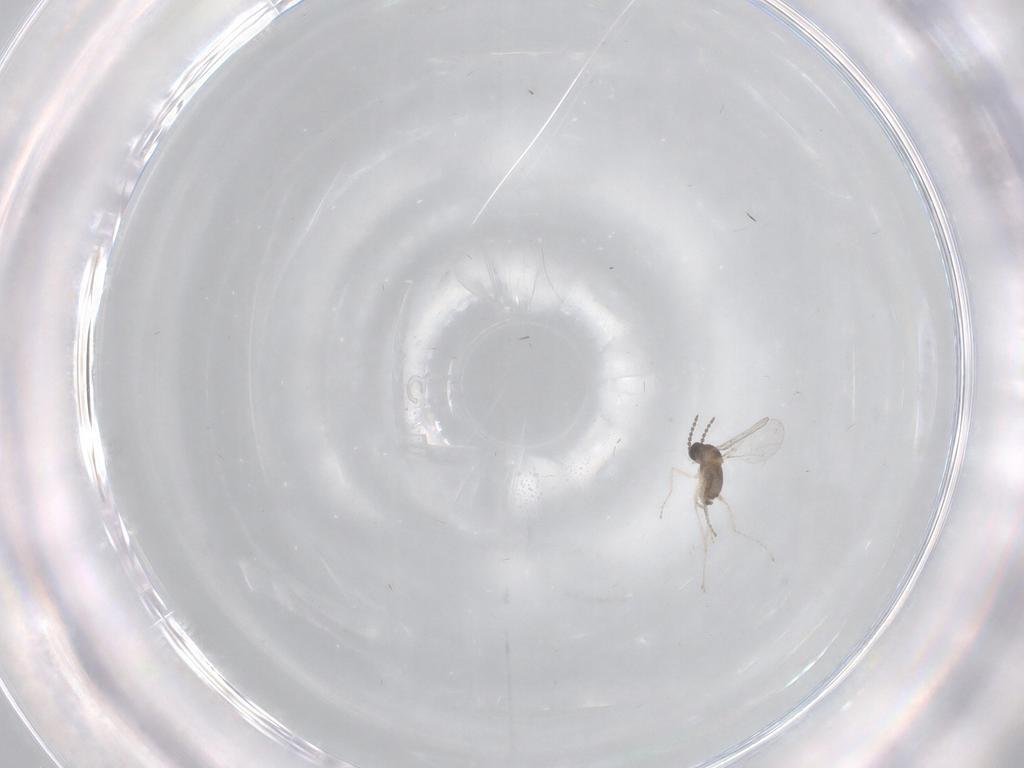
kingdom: Animalia
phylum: Arthropoda
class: Insecta
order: Diptera
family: Cecidomyiidae
